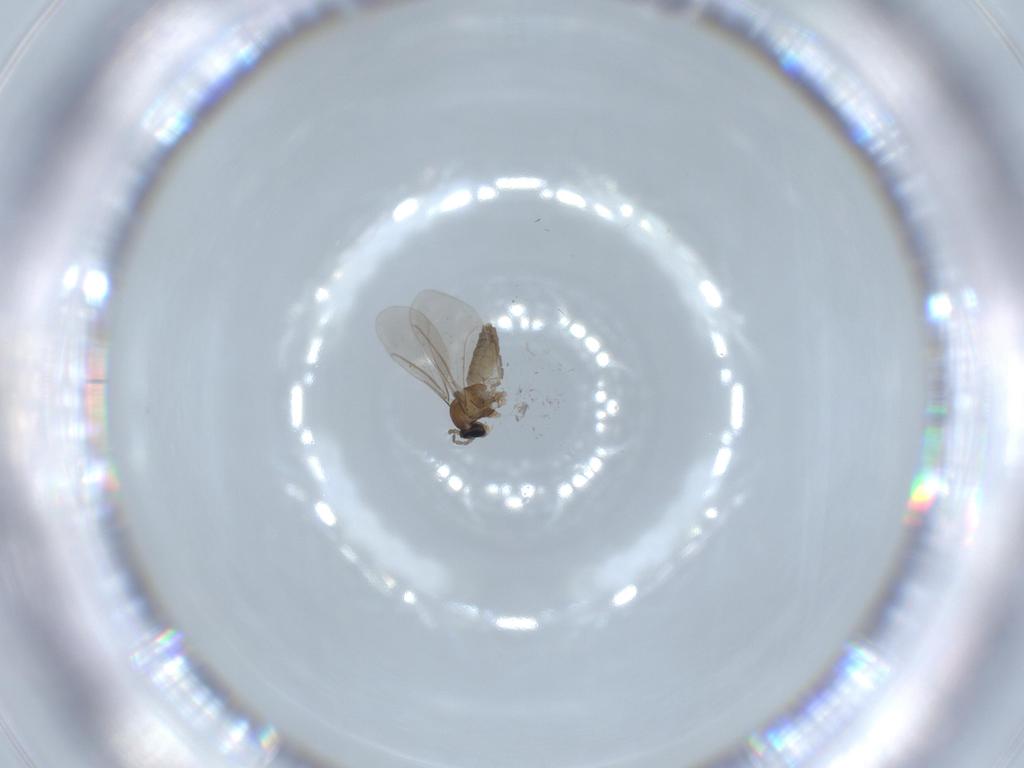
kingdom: Animalia
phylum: Arthropoda
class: Insecta
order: Diptera
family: Cecidomyiidae
